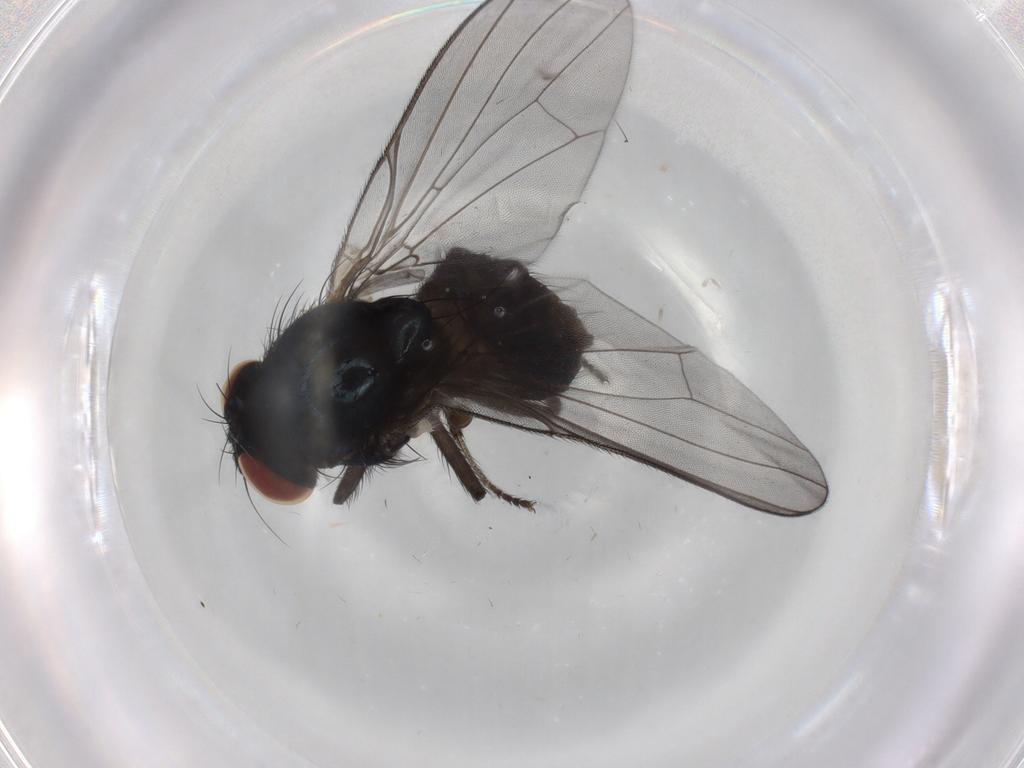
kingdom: Animalia
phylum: Arthropoda
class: Insecta
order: Diptera
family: Lonchaeidae
